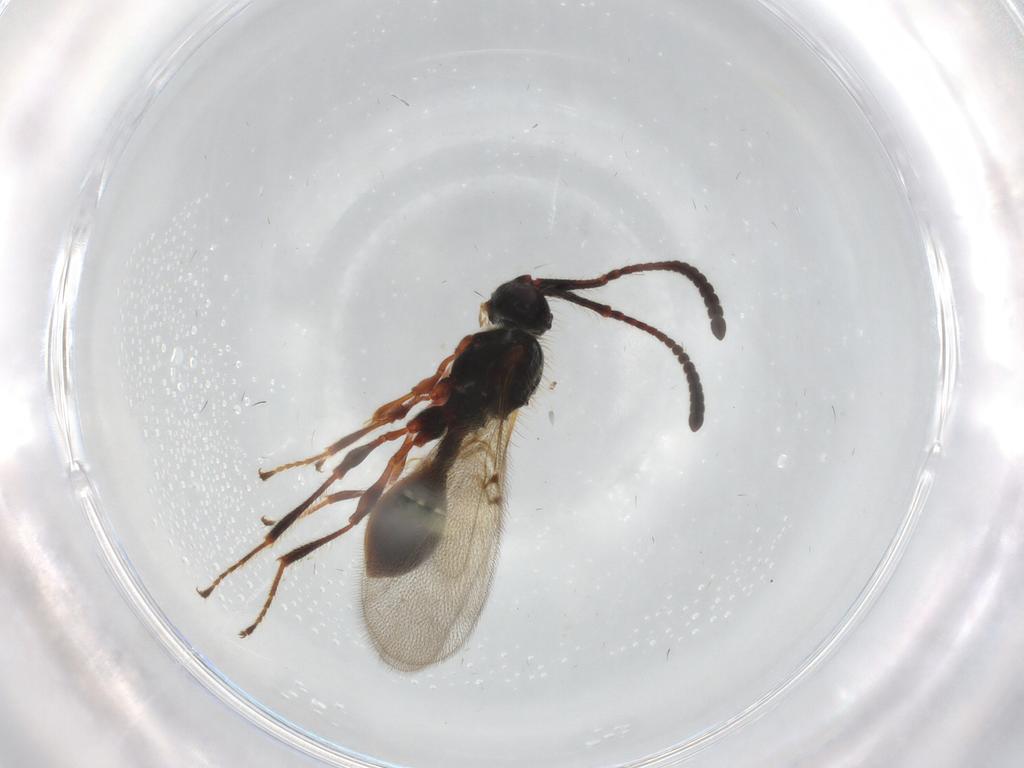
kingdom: Animalia
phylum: Arthropoda
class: Insecta
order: Hymenoptera
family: Diapriidae
